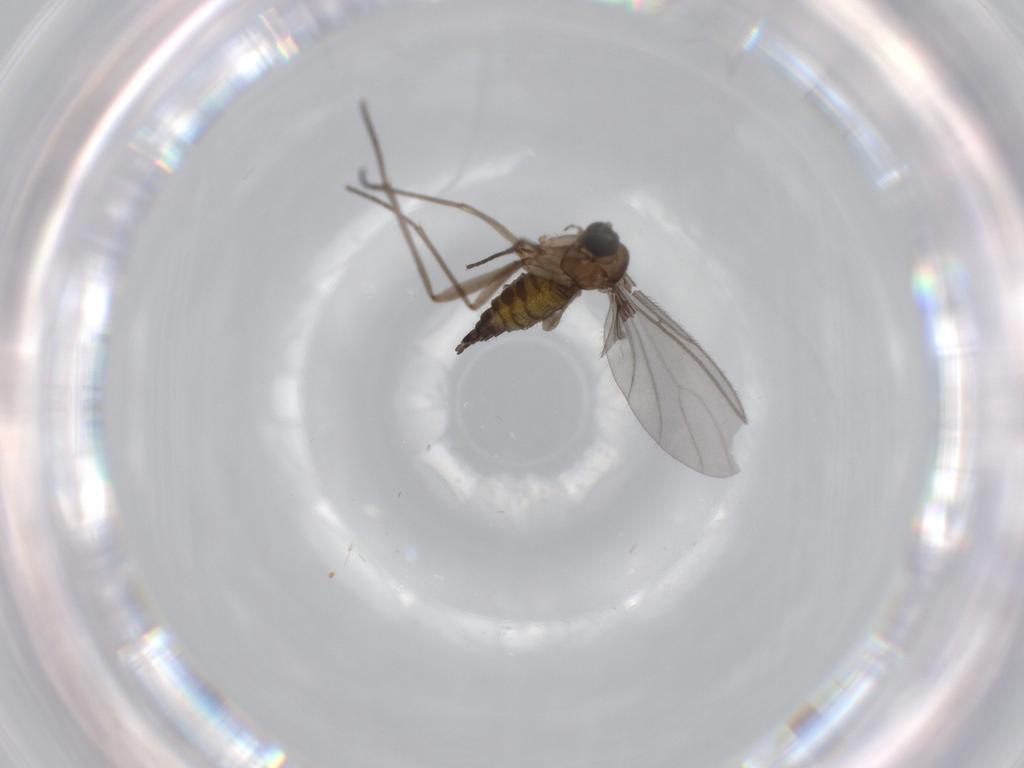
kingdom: Animalia
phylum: Arthropoda
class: Insecta
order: Diptera
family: Sciaridae
